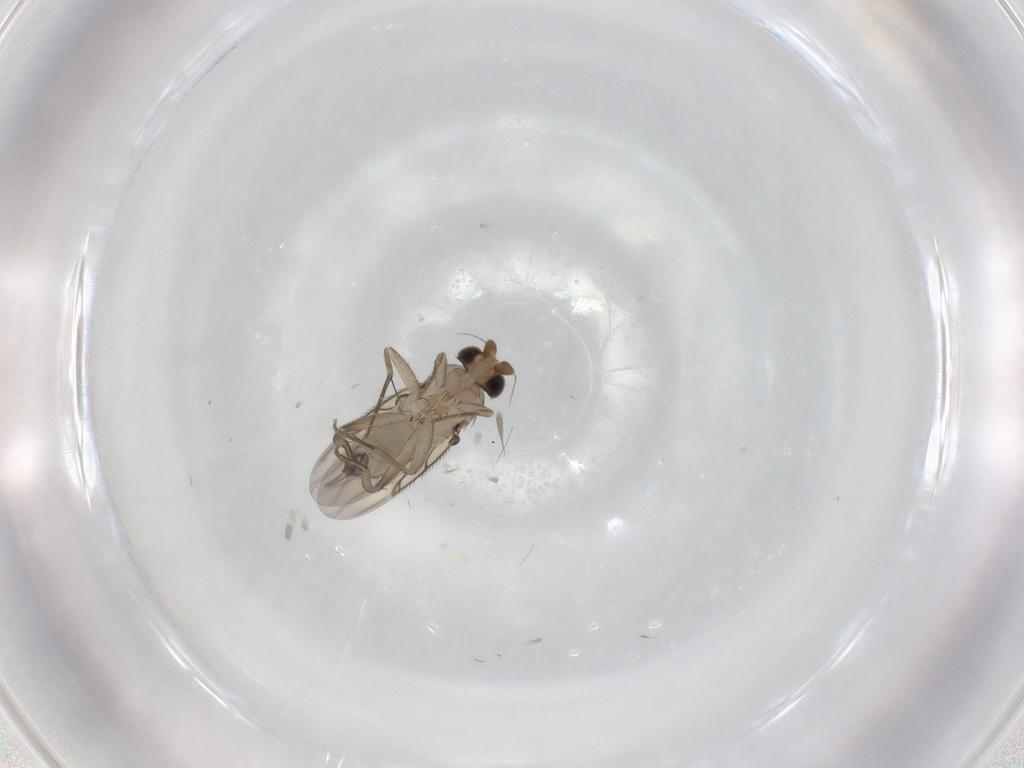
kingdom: Animalia
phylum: Arthropoda
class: Insecta
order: Diptera
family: Phoridae
